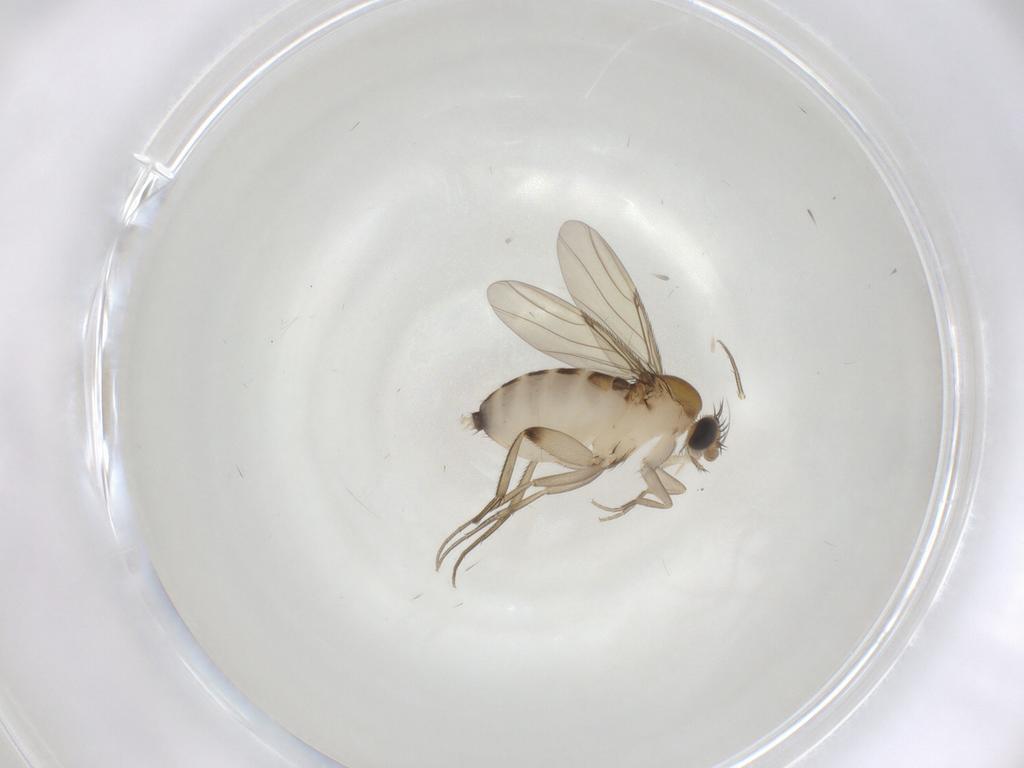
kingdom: Animalia
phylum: Arthropoda
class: Insecta
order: Diptera
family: Phoridae
